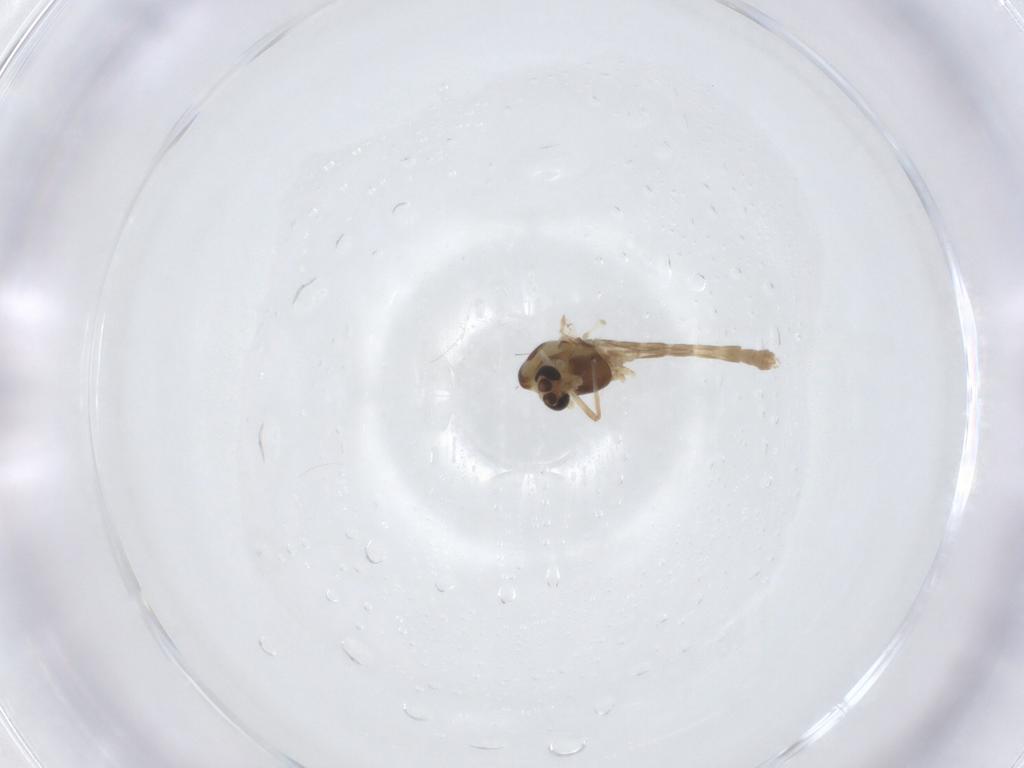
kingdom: Animalia
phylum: Arthropoda
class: Insecta
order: Diptera
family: Chironomidae
